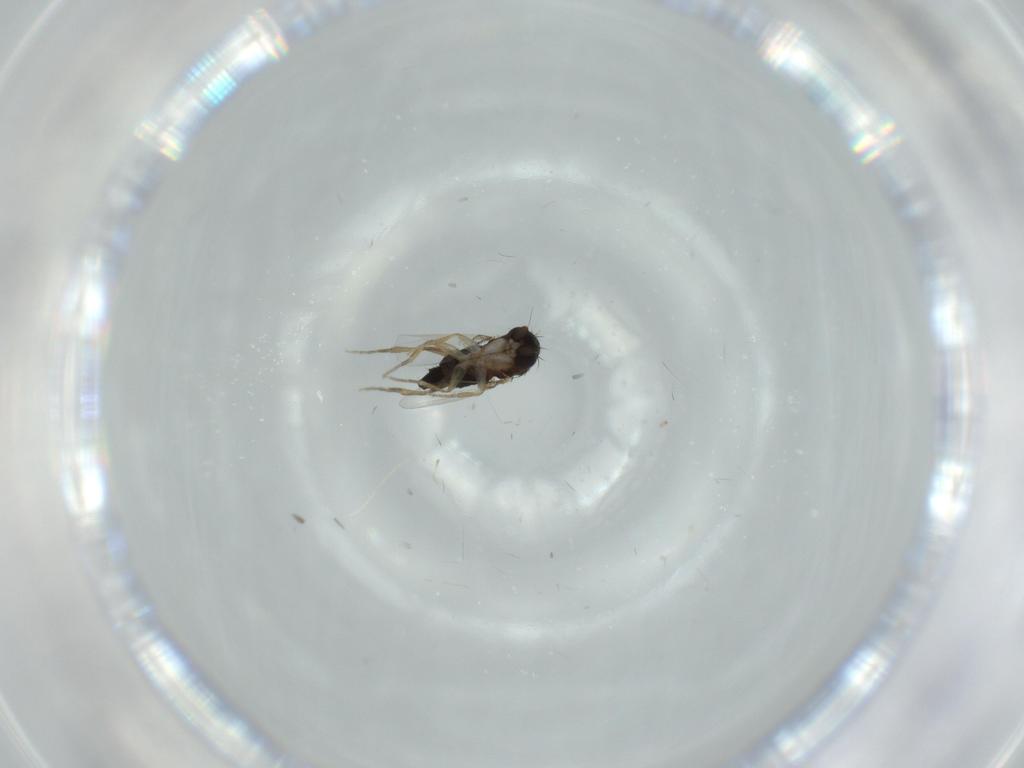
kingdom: Animalia
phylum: Arthropoda
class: Insecta
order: Diptera
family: Phoridae
